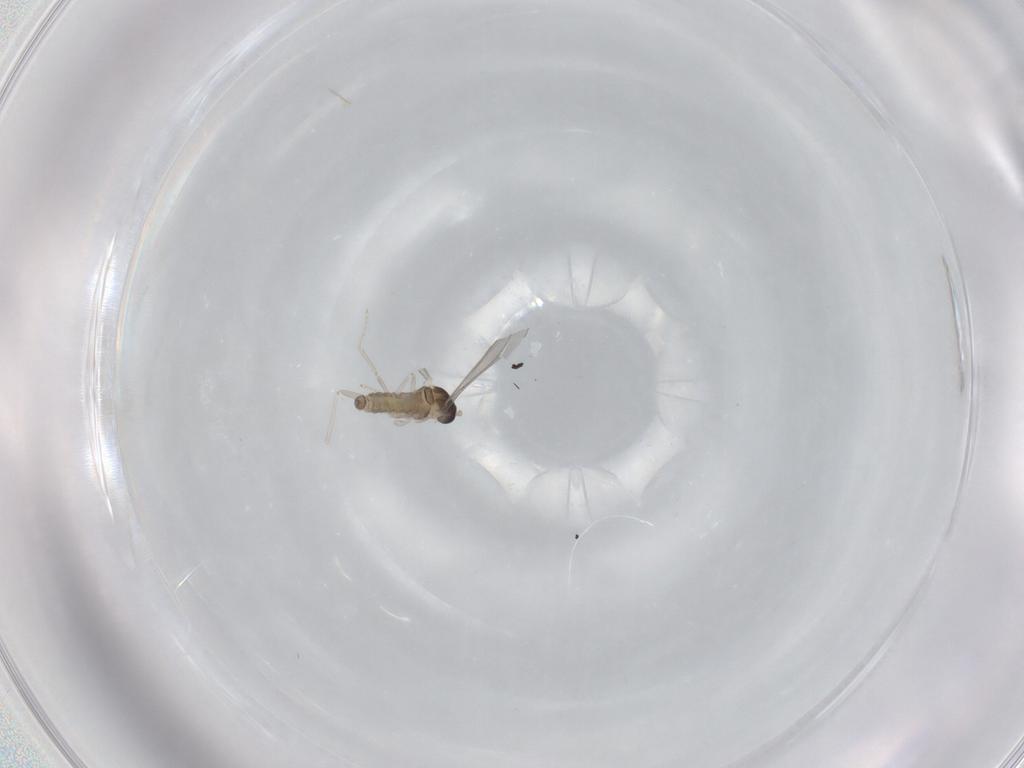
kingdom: Animalia
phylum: Arthropoda
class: Insecta
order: Diptera
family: Cecidomyiidae
